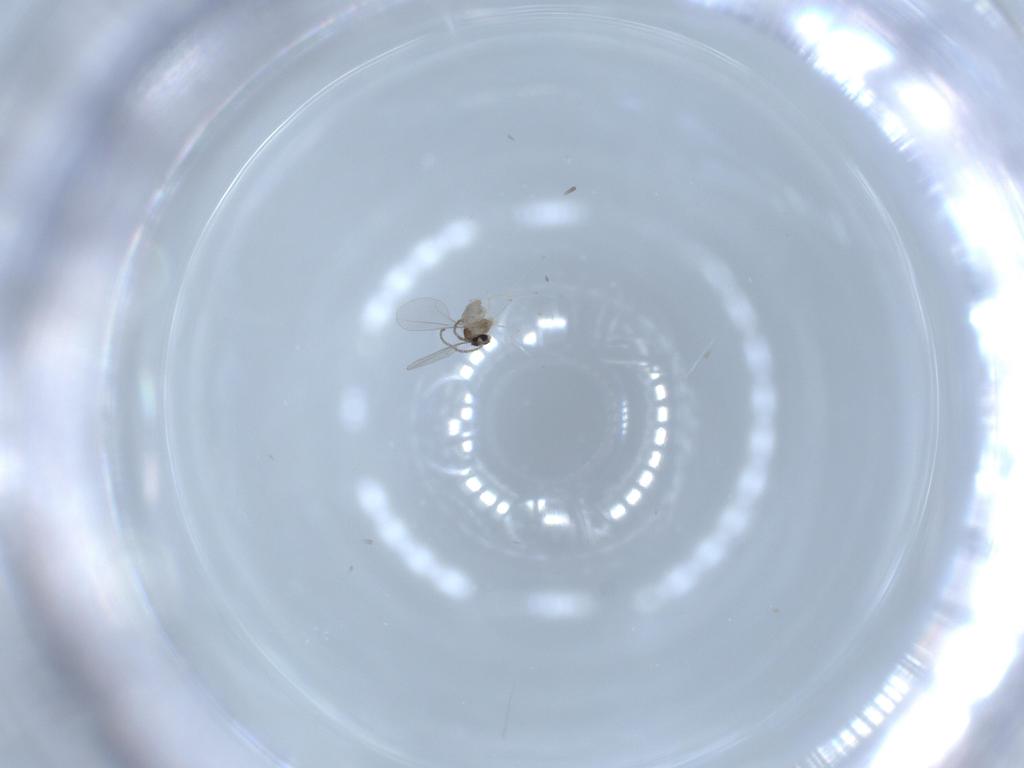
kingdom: Animalia
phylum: Arthropoda
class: Insecta
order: Diptera
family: Cecidomyiidae
